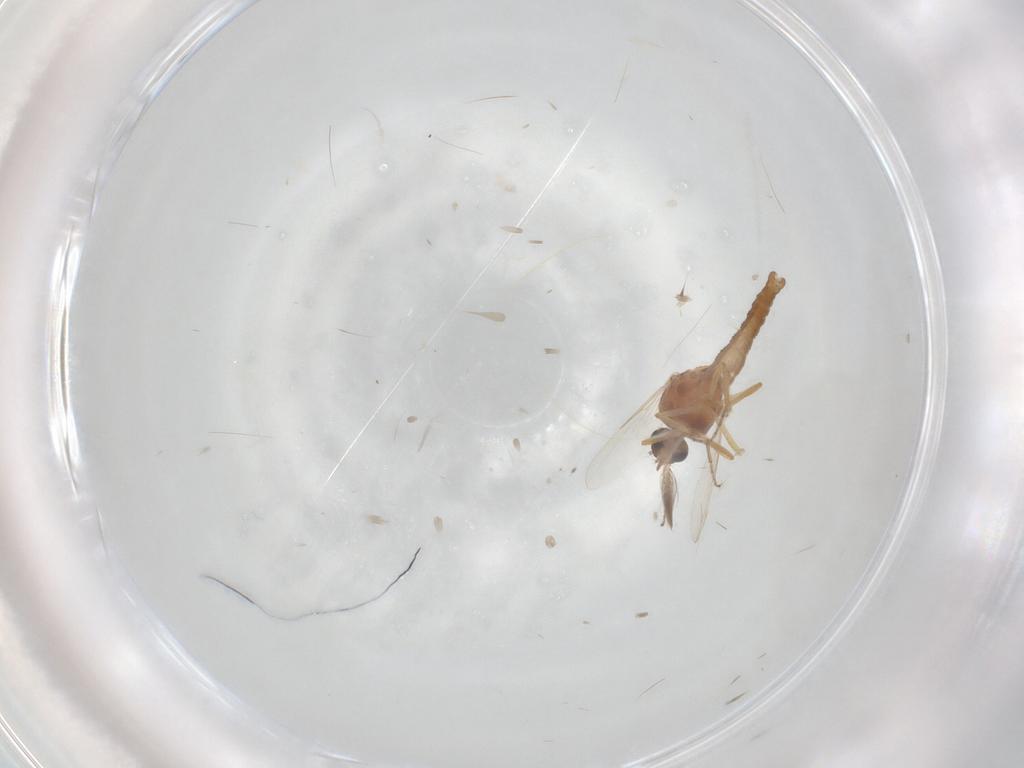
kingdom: Animalia
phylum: Arthropoda
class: Insecta
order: Diptera
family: Ceratopogonidae
